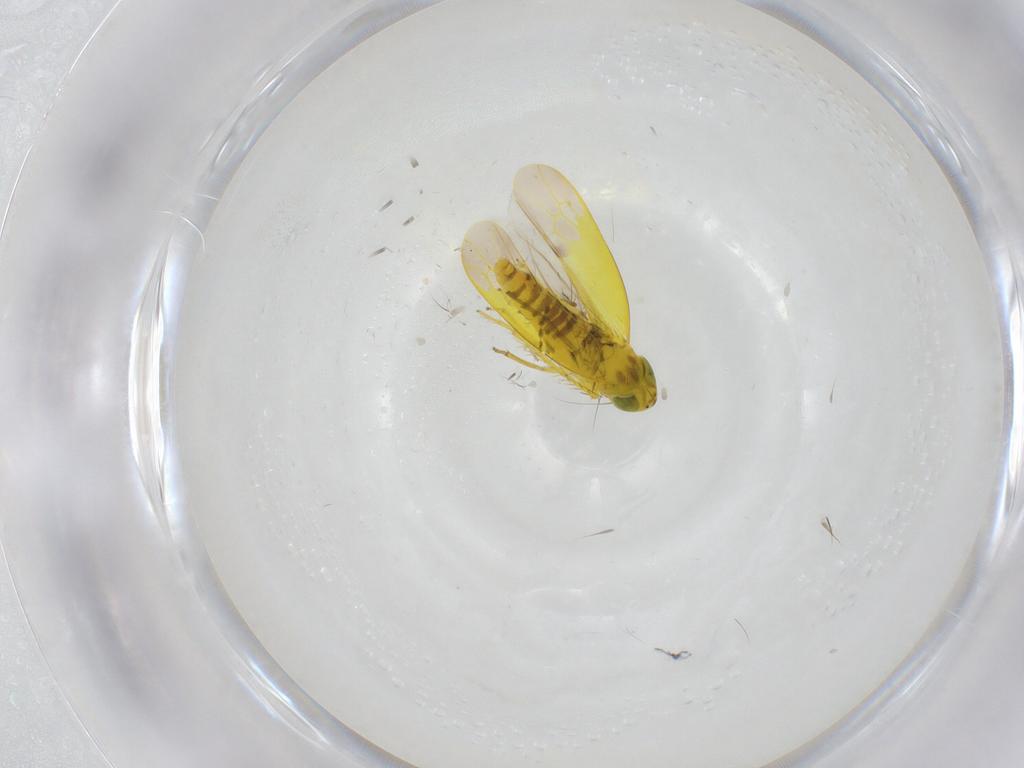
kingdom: Animalia
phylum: Arthropoda
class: Insecta
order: Hemiptera
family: Cicadellidae
